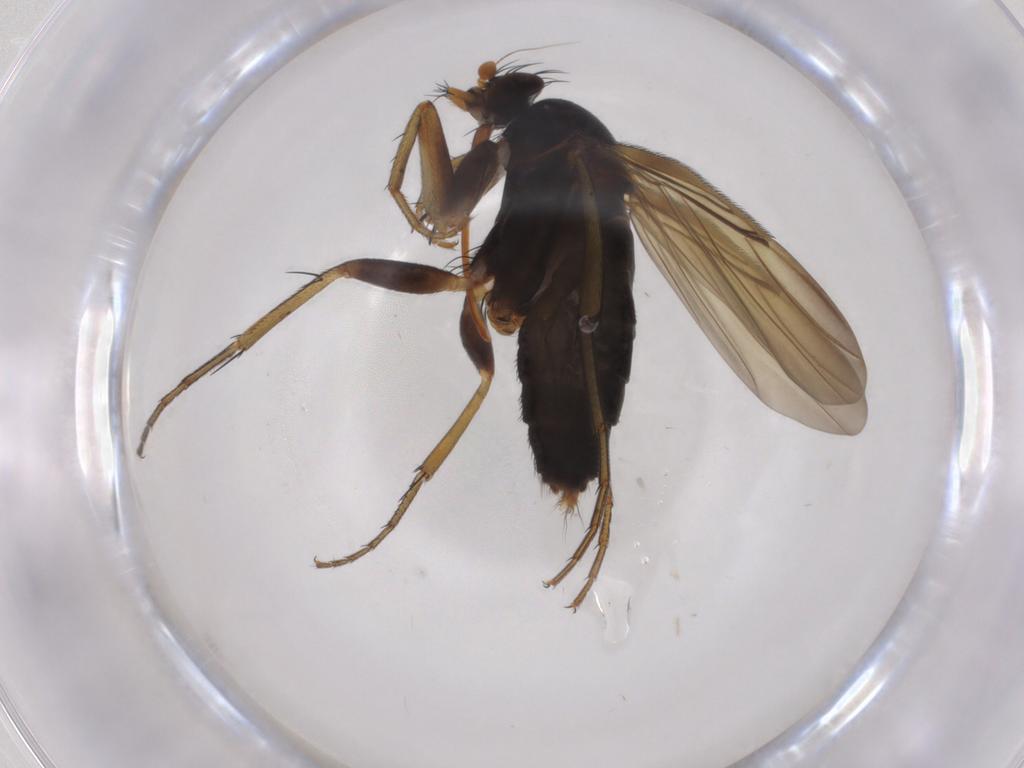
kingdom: Animalia
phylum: Arthropoda
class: Insecta
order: Diptera
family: Phoridae
